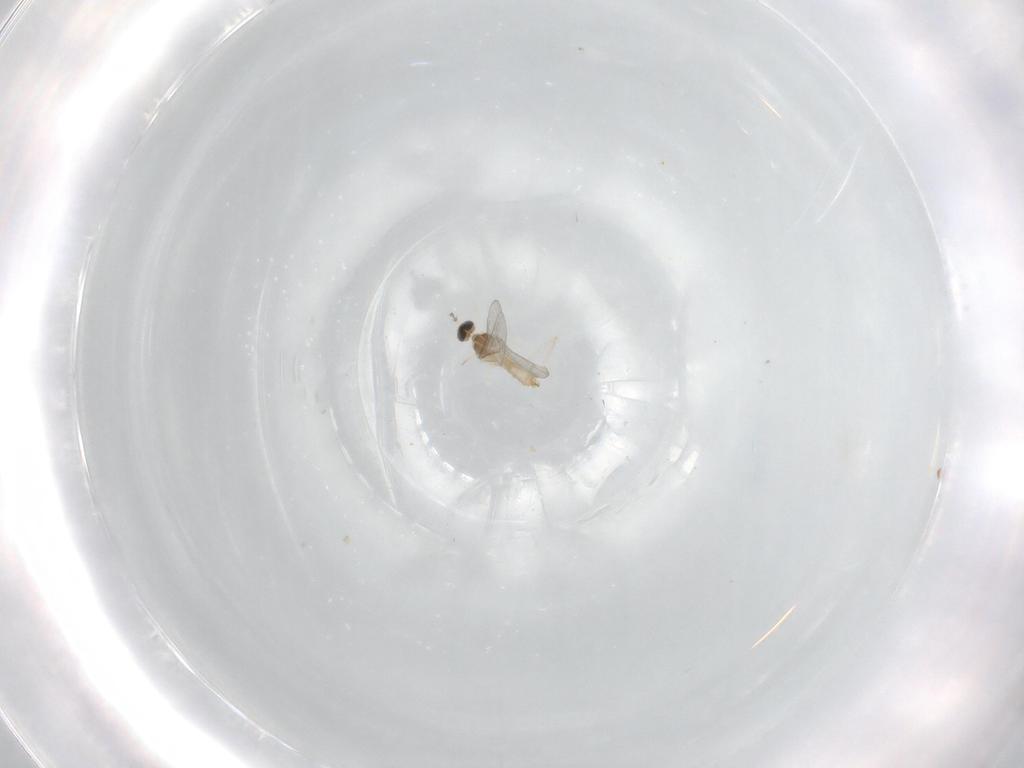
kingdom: Animalia
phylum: Arthropoda
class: Insecta
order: Diptera
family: Cecidomyiidae
